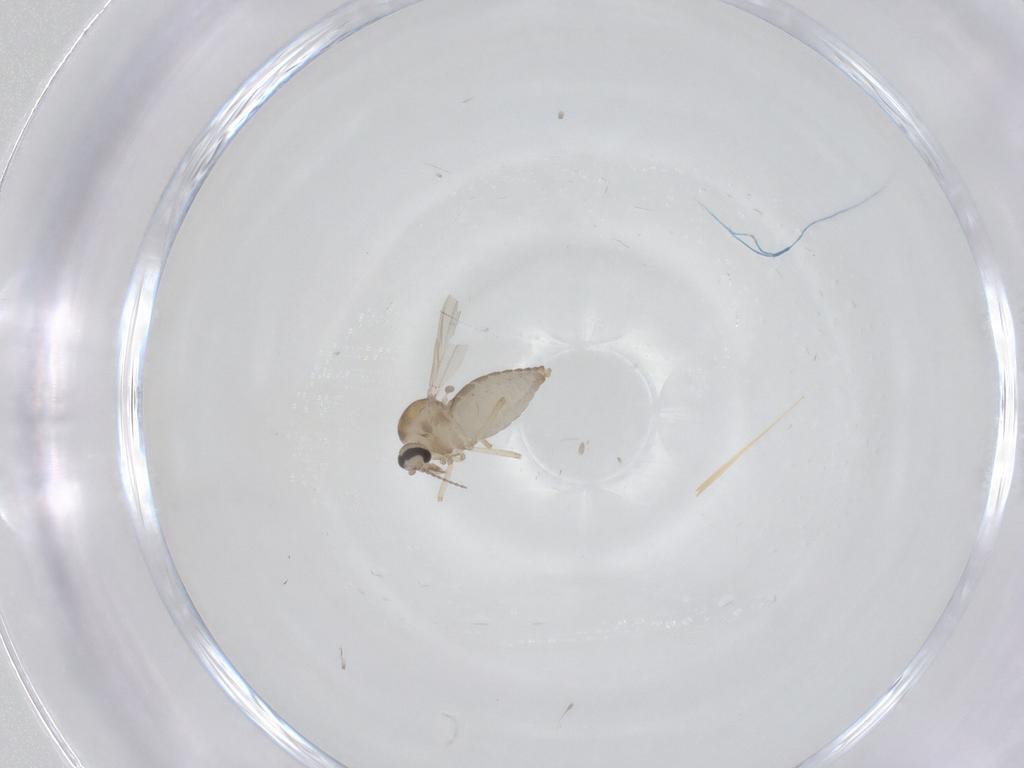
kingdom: Animalia
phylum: Arthropoda
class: Insecta
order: Diptera
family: Ceratopogonidae
